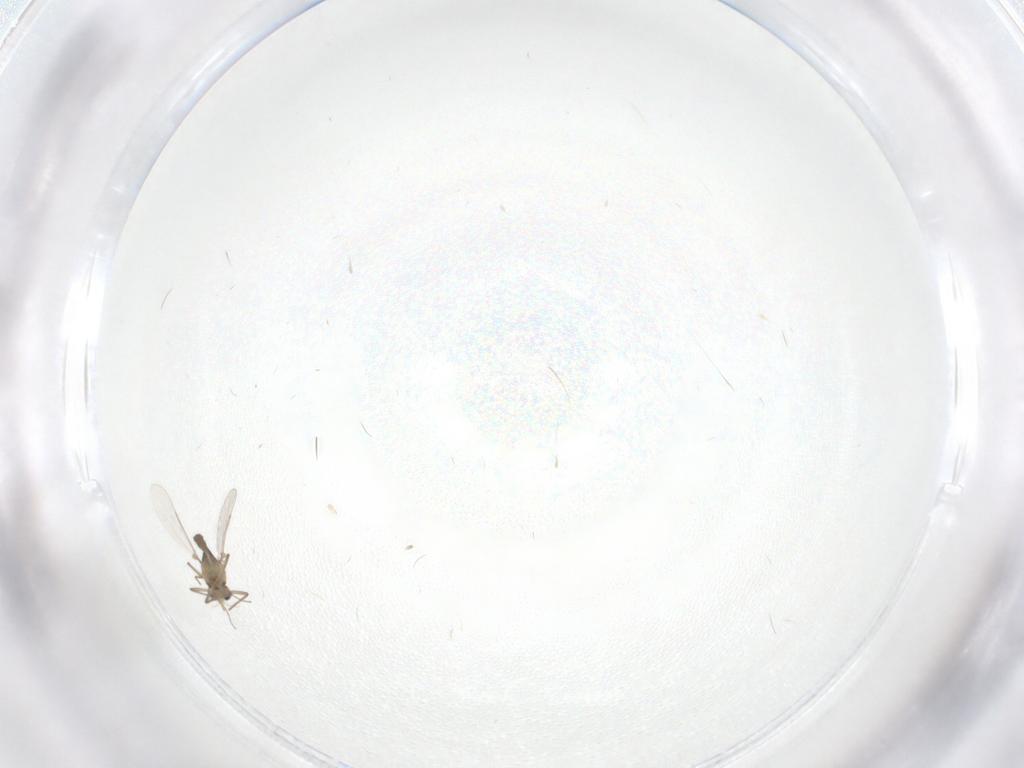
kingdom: Animalia
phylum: Arthropoda
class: Insecta
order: Diptera
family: Chironomidae
